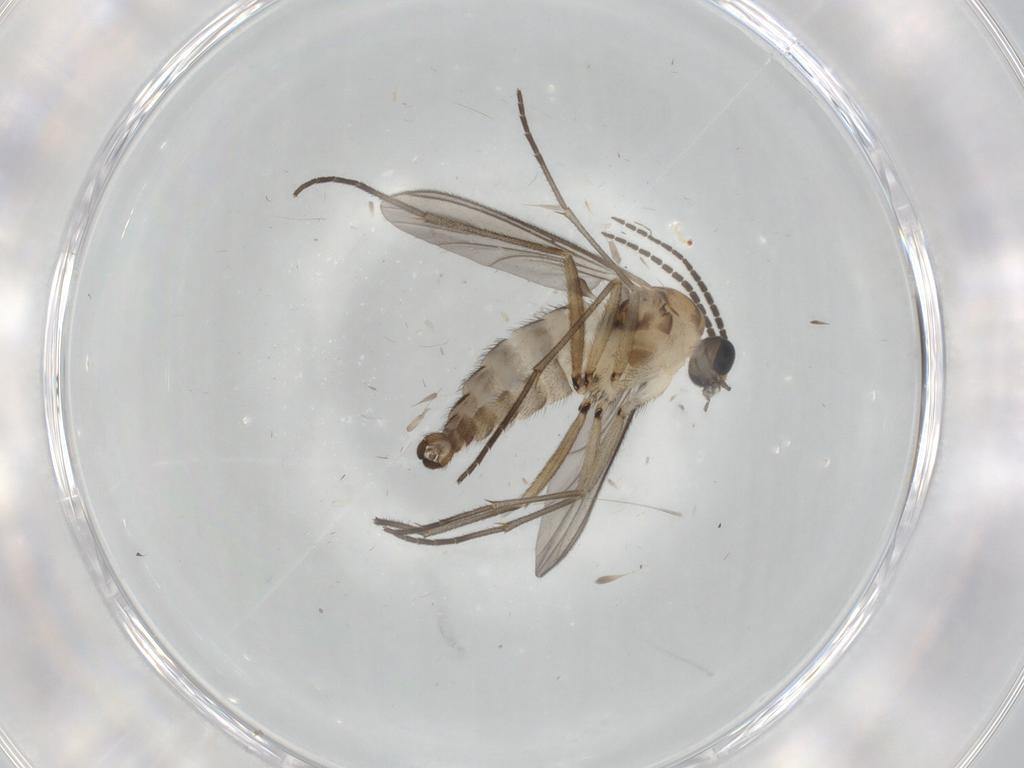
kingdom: Animalia
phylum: Arthropoda
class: Insecta
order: Diptera
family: Sciaridae
